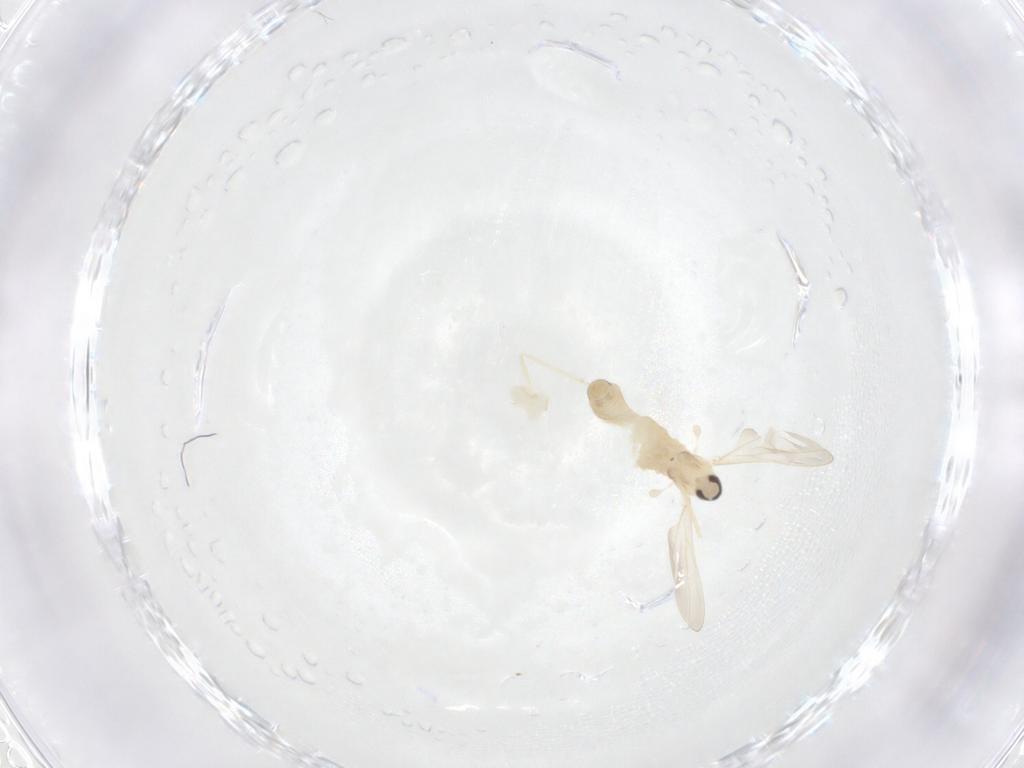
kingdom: Animalia
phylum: Arthropoda
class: Insecta
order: Diptera
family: Cecidomyiidae
